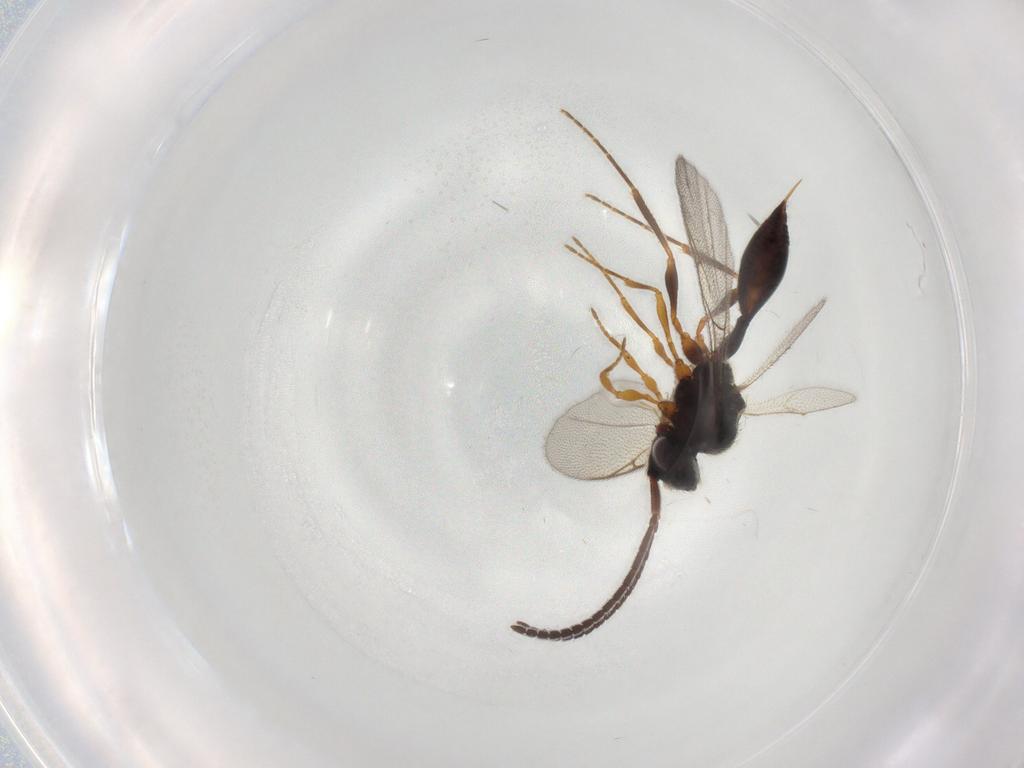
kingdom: Animalia
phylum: Arthropoda
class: Insecta
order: Hymenoptera
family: Diapriidae
